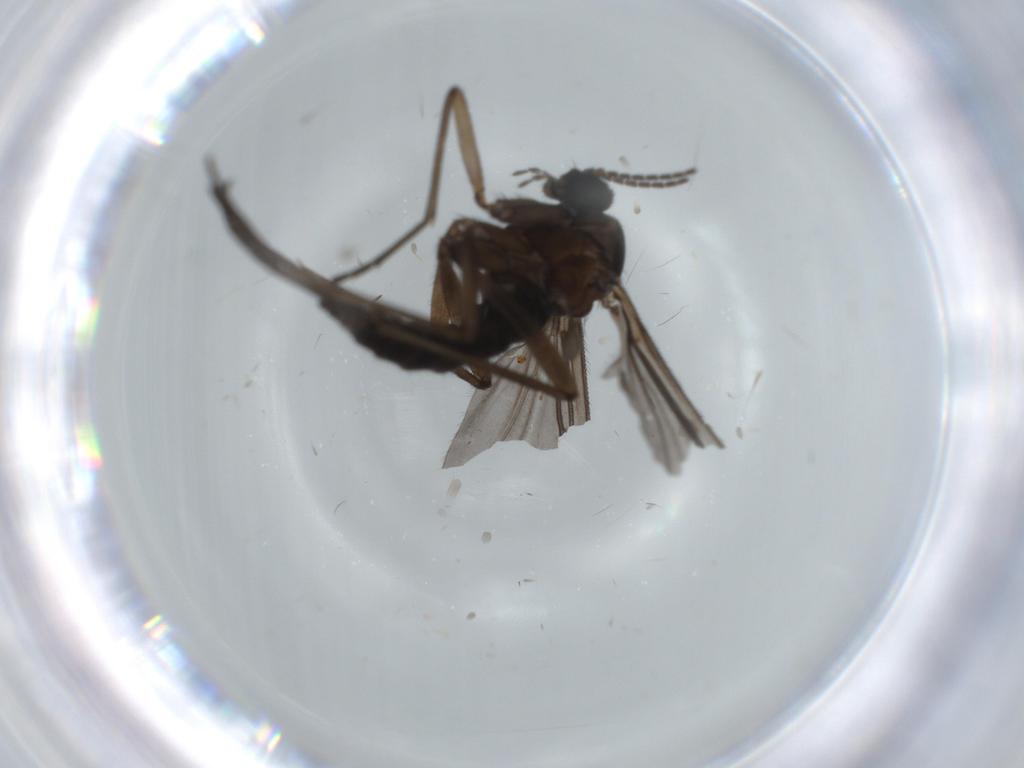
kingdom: Animalia
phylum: Arthropoda
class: Insecta
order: Diptera
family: Sciaridae
